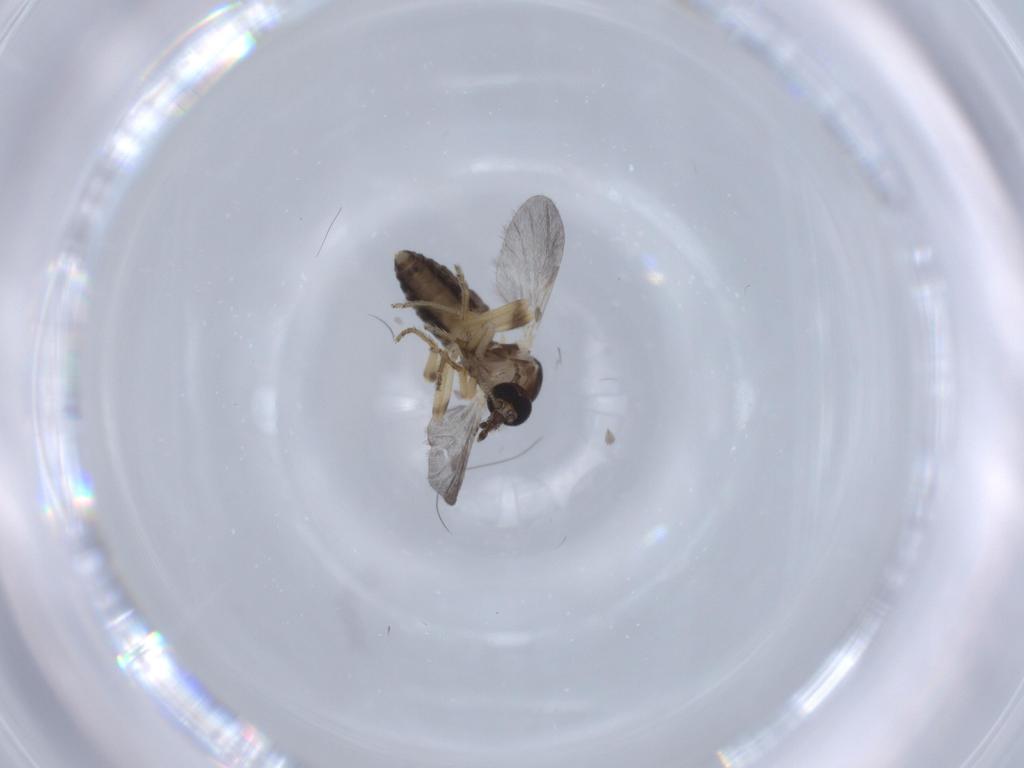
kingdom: Animalia
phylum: Arthropoda
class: Insecta
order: Diptera
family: Ceratopogonidae
